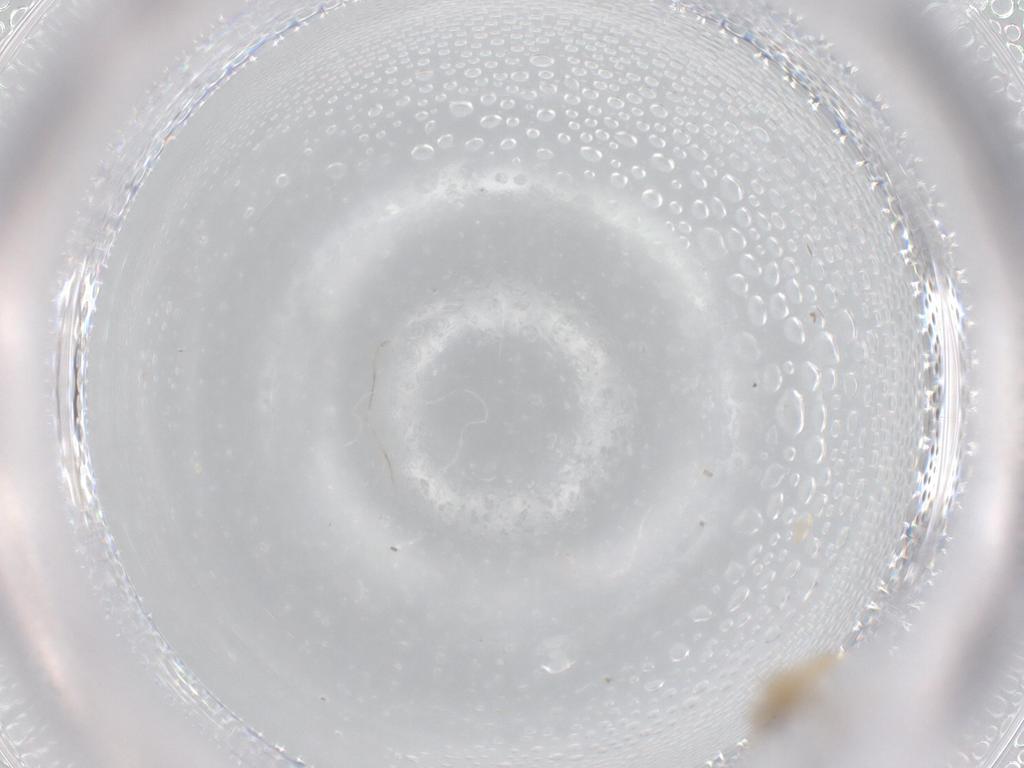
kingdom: Animalia
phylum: Arthropoda
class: Insecta
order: Diptera
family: Cecidomyiidae
